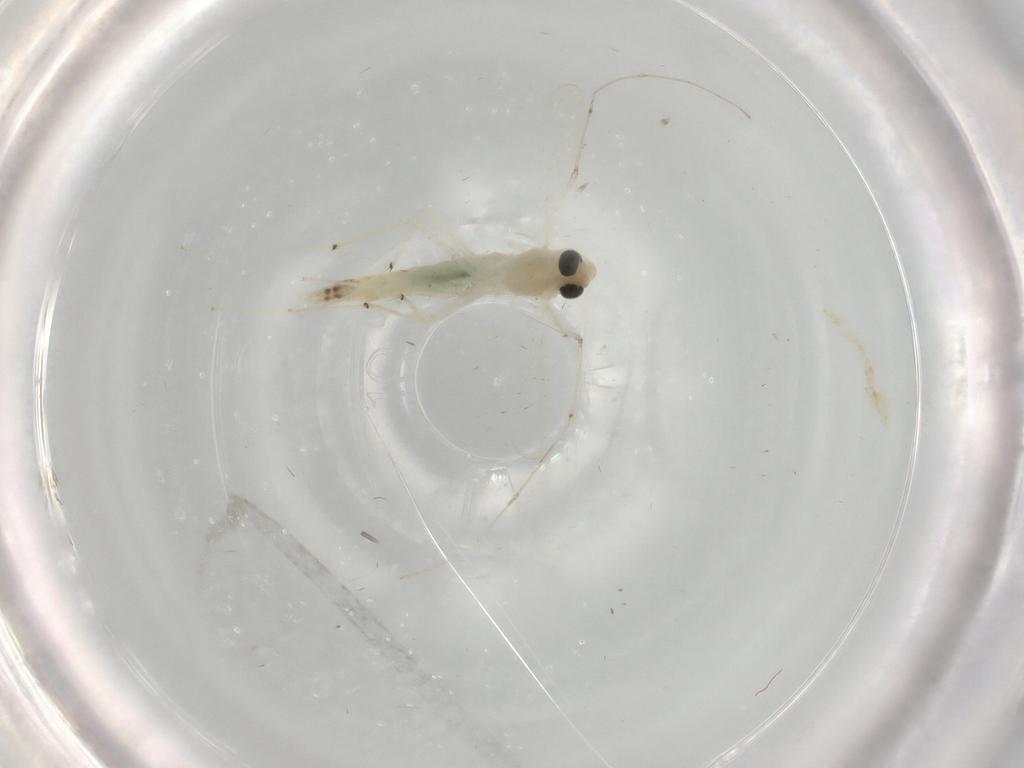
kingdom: Animalia
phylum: Arthropoda
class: Insecta
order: Diptera
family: Chironomidae
